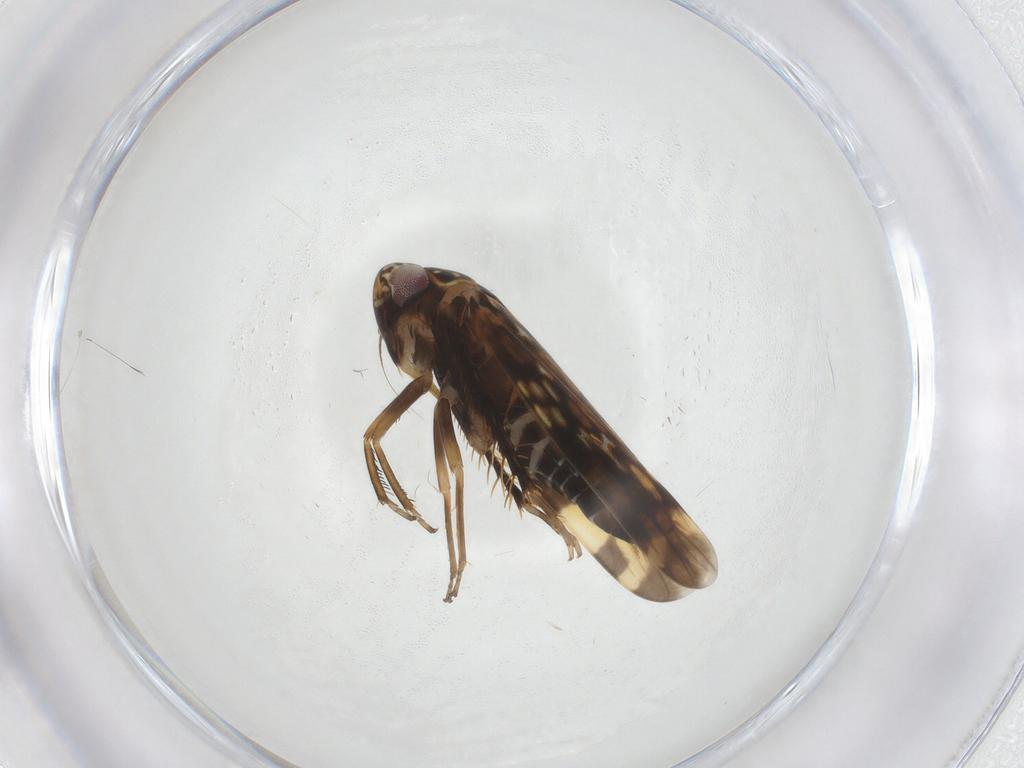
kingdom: Animalia
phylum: Arthropoda
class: Insecta
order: Hemiptera
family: Cicadellidae
